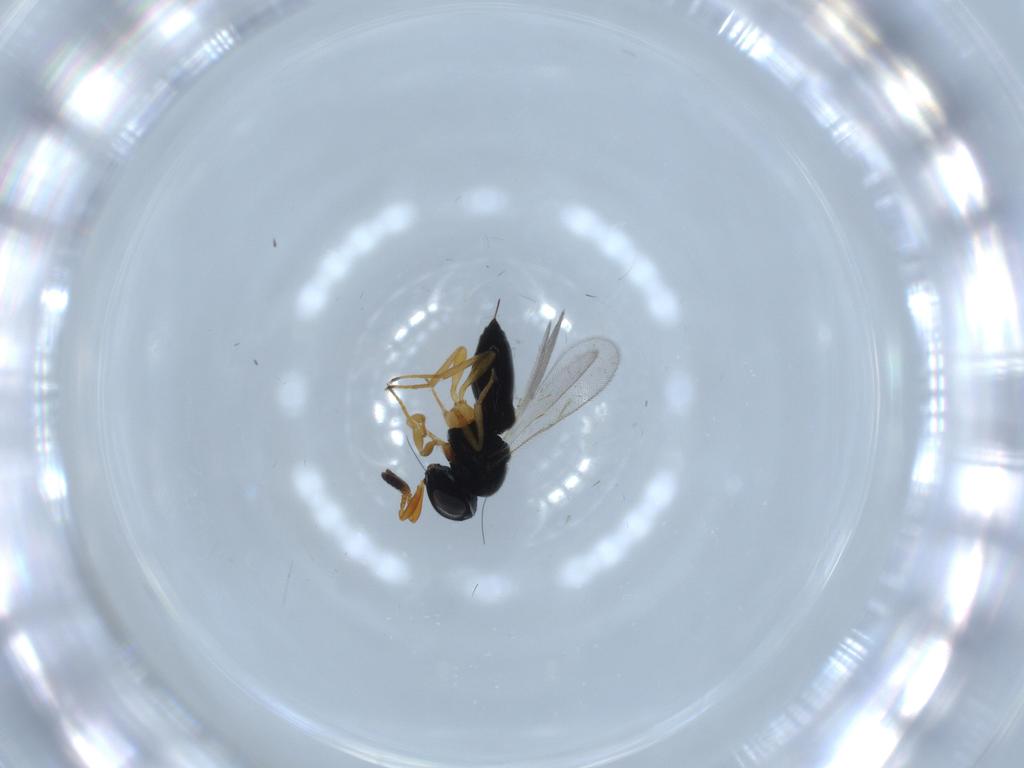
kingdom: Animalia
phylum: Arthropoda
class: Insecta
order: Hymenoptera
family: Scelionidae
